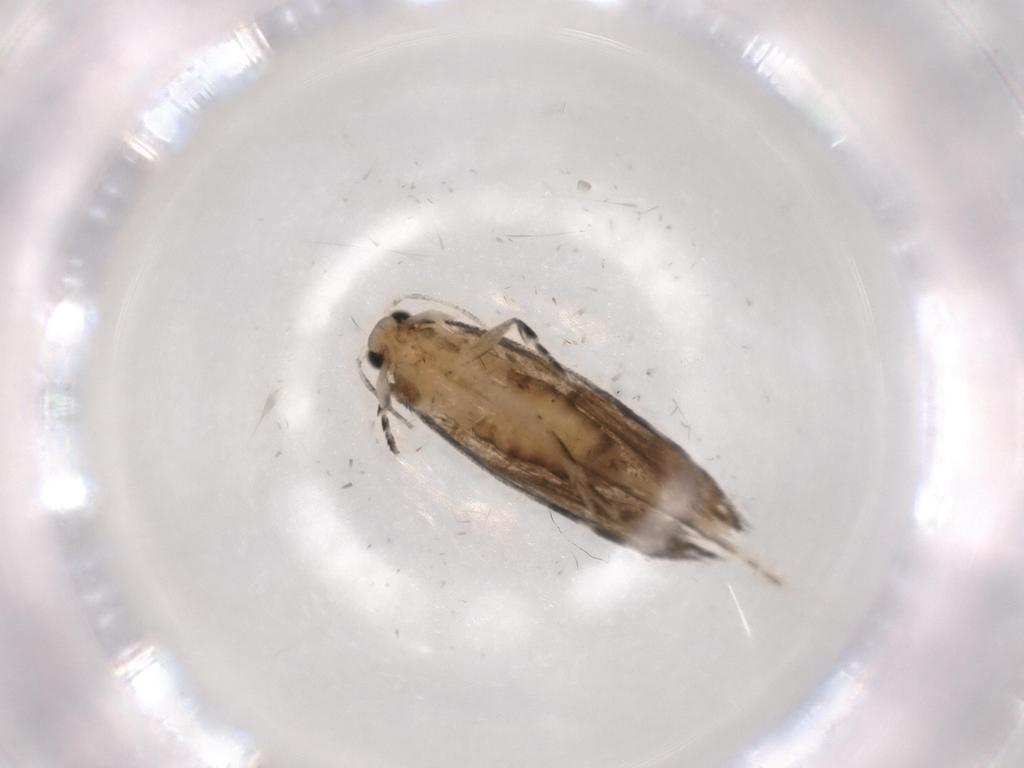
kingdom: Animalia
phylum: Arthropoda
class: Insecta
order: Lepidoptera
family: Tineidae
